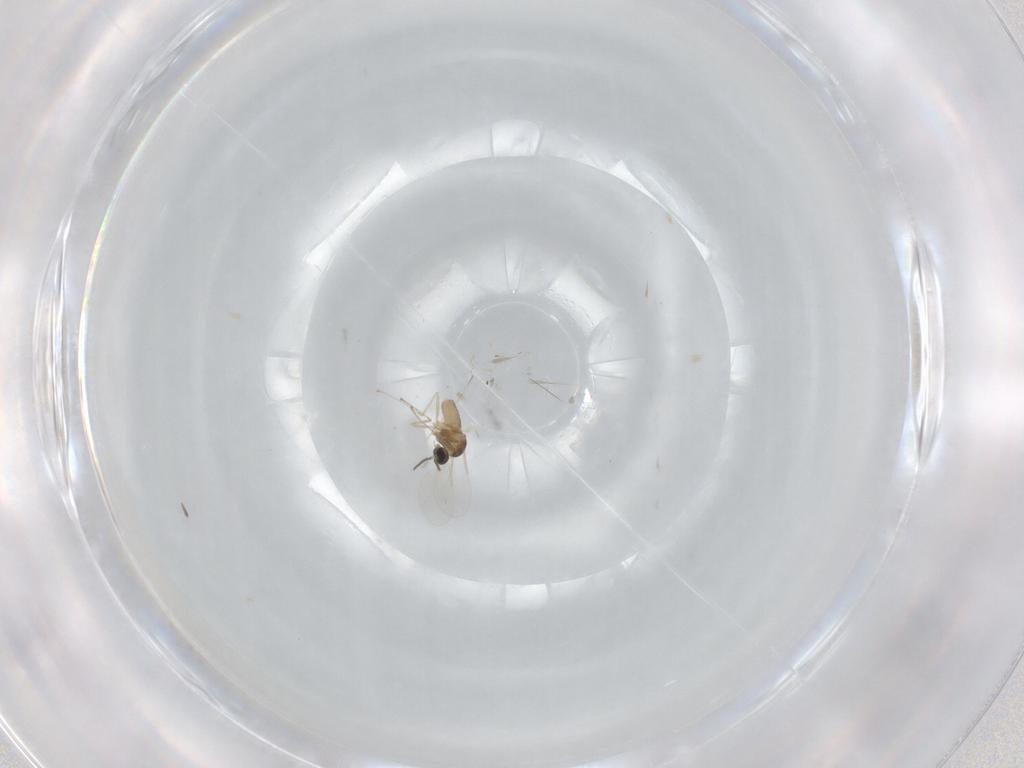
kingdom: Animalia
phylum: Arthropoda
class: Insecta
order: Diptera
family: Cecidomyiidae
